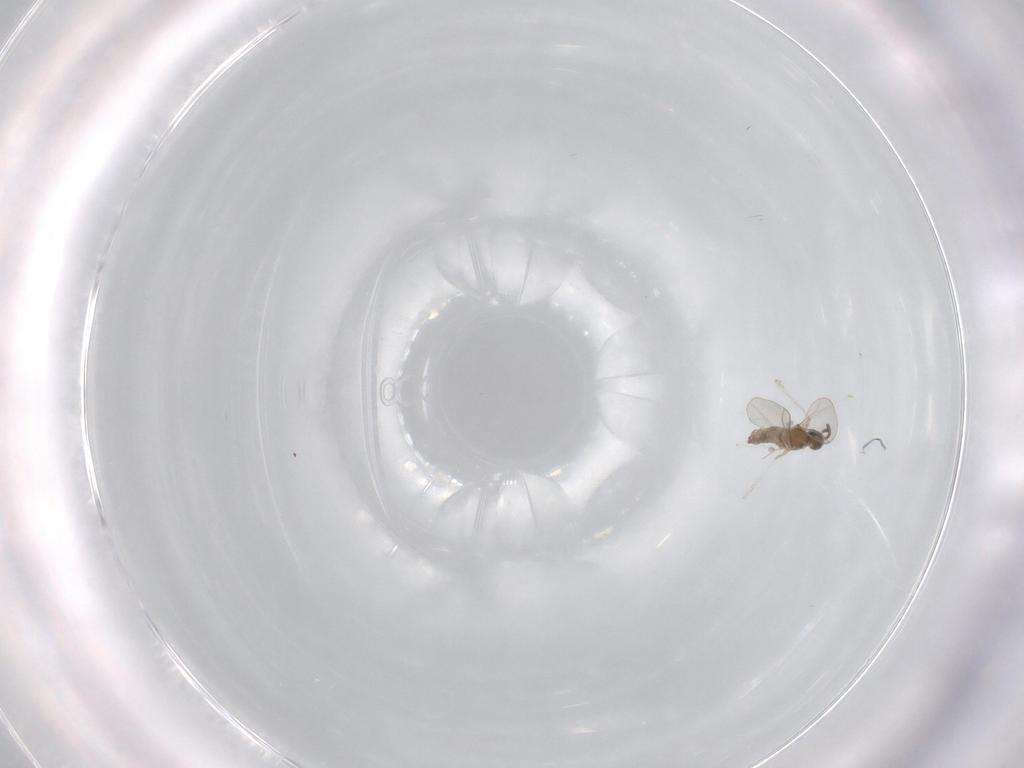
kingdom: Animalia
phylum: Arthropoda
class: Insecta
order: Diptera
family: Cecidomyiidae
